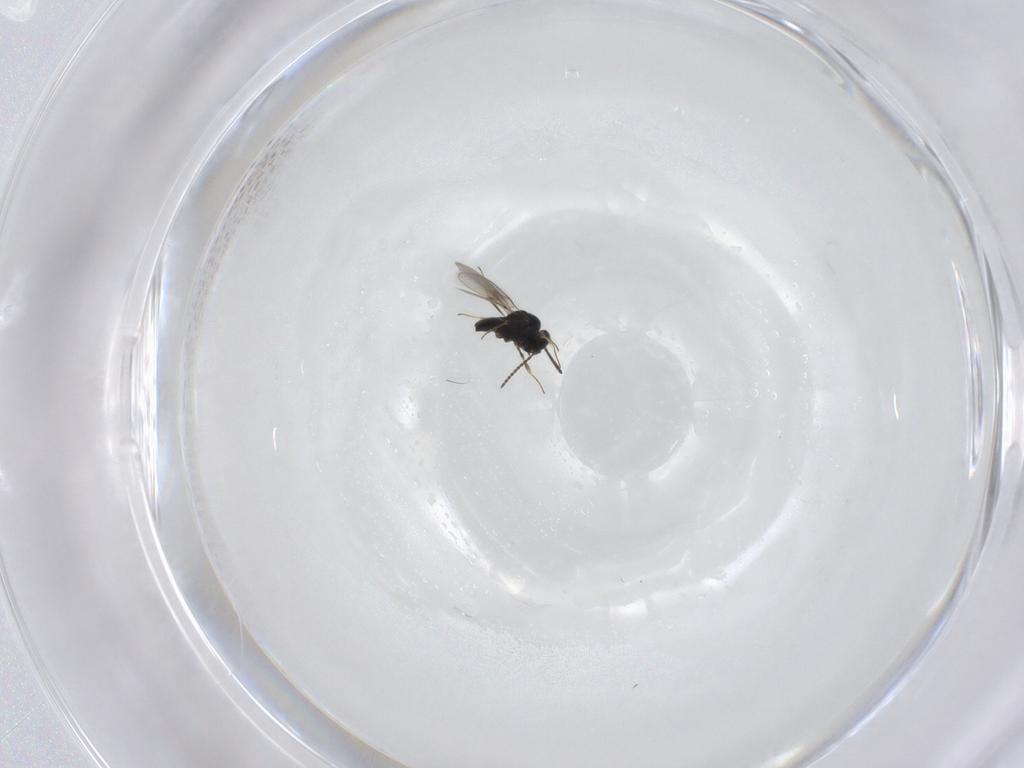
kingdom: Animalia
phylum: Arthropoda
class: Insecta
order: Hymenoptera
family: Scelionidae
